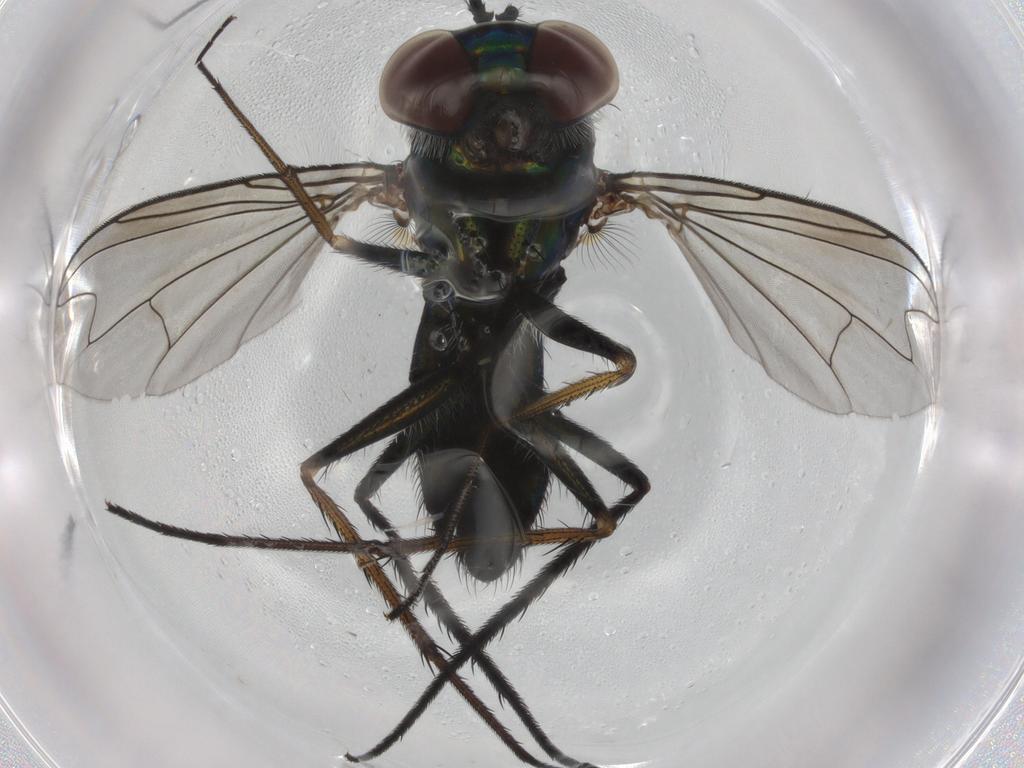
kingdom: Animalia
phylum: Arthropoda
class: Insecta
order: Diptera
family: Dolichopodidae
